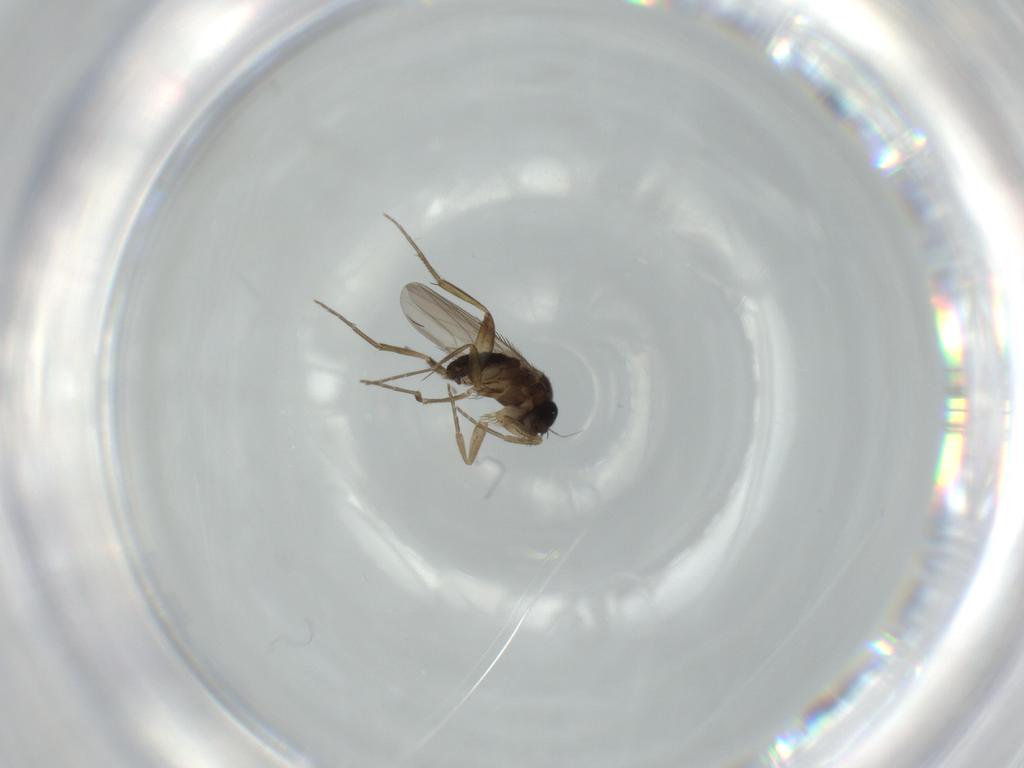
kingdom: Animalia
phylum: Arthropoda
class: Insecta
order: Diptera
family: Phoridae
